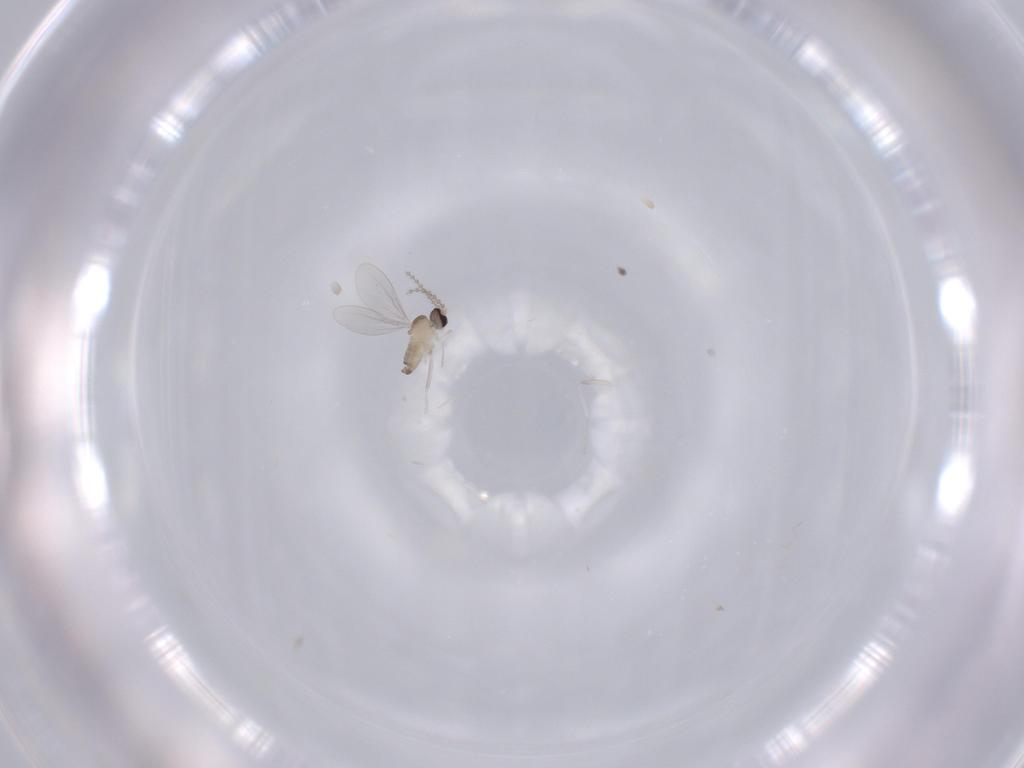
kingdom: Animalia
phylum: Arthropoda
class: Insecta
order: Diptera
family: Cecidomyiidae
